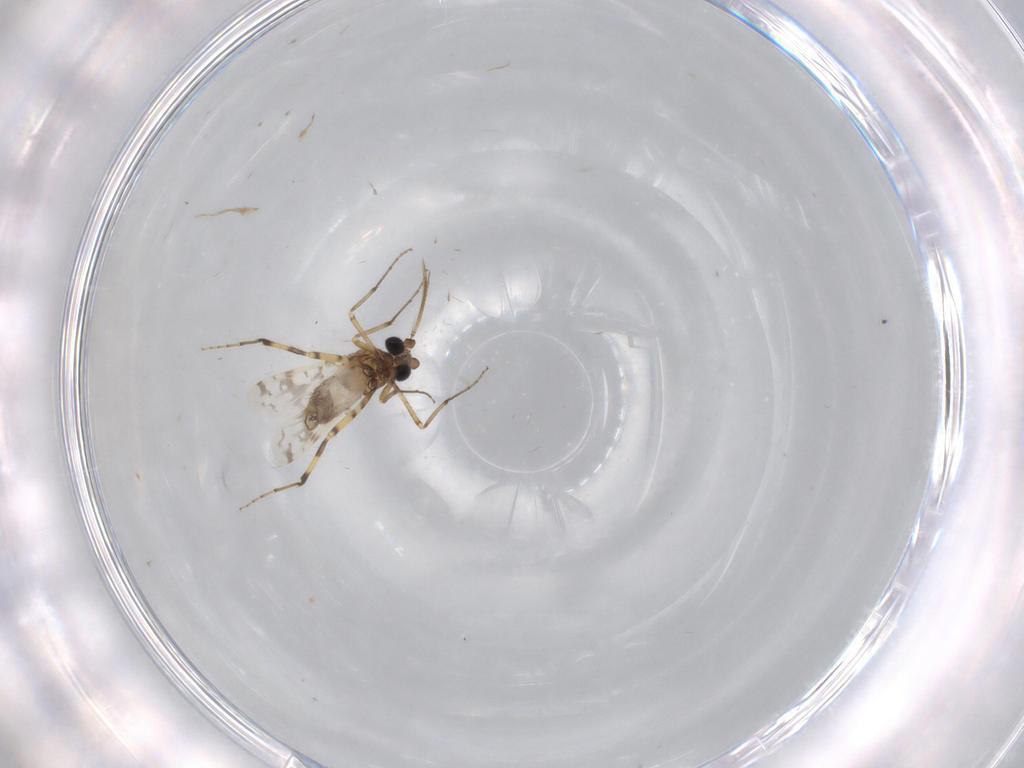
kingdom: Animalia
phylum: Arthropoda
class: Insecta
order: Diptera
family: Ceratopogonidae
